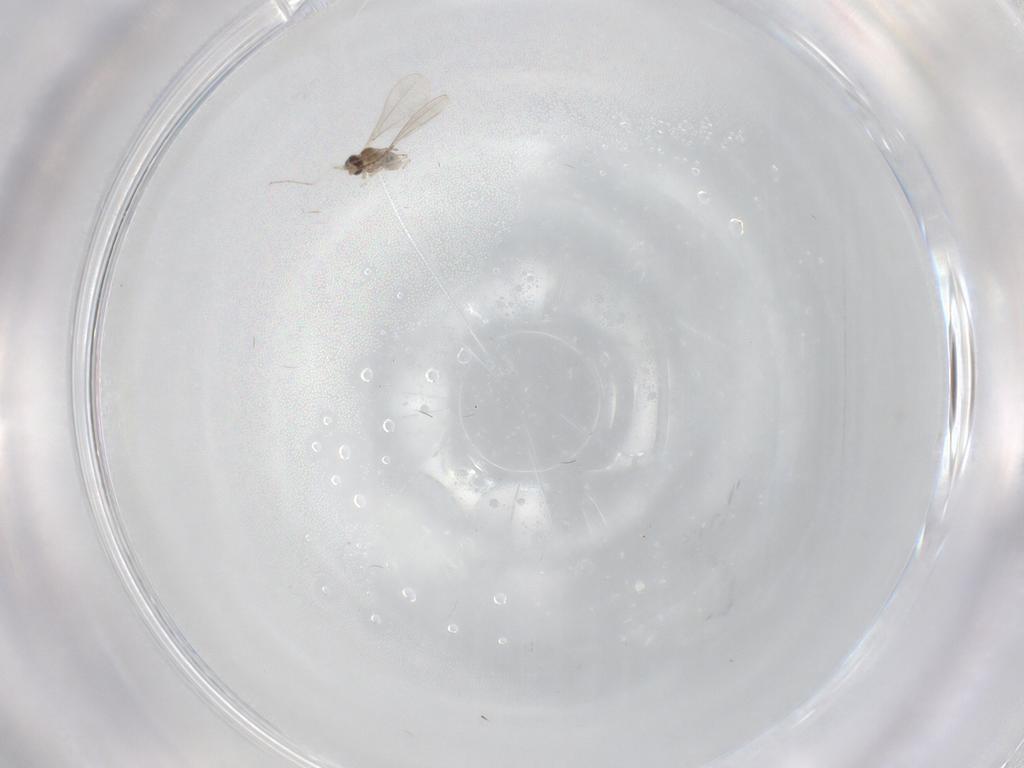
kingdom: Animalia
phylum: Arthropoda
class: Insecta
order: Diptera
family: Cecidomyiidae
